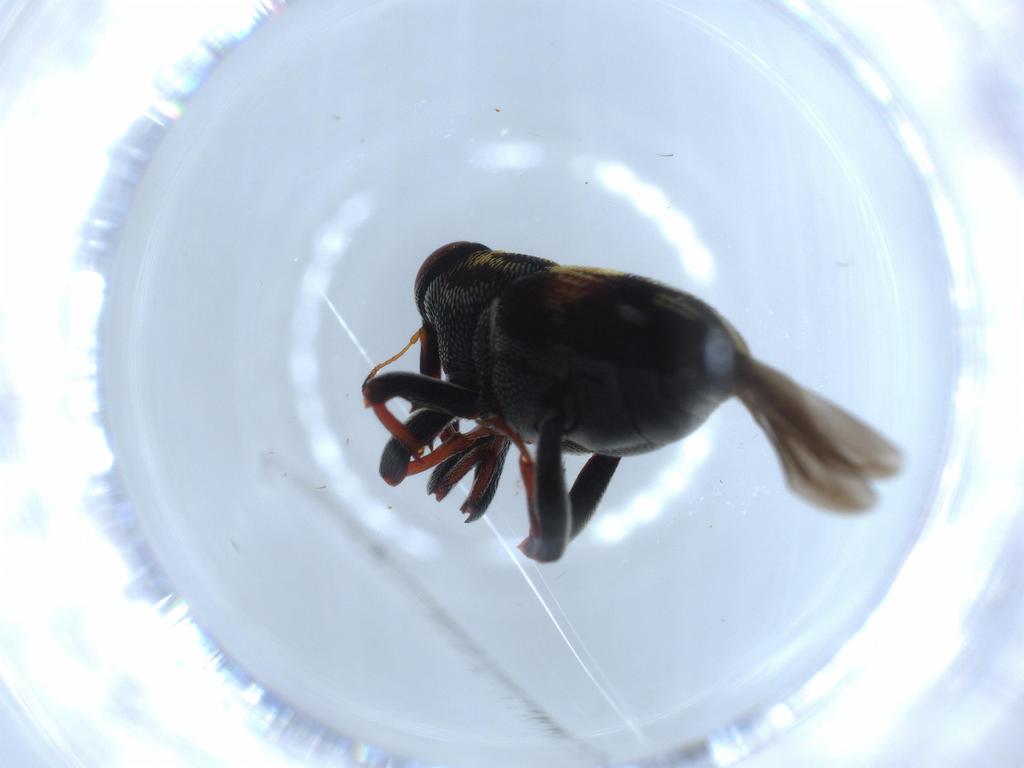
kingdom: Animalia
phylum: Arthropoda
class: Insecta
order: Coleoptera
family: Curculionidae
